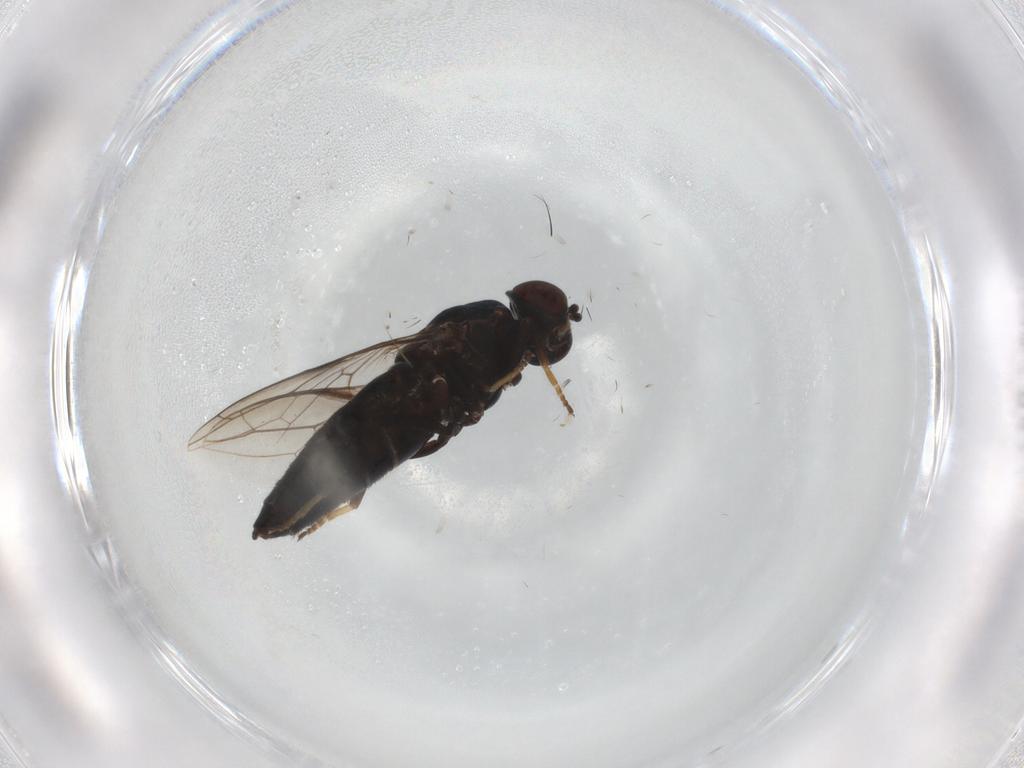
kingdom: Animalia
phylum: Arthropoda
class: Insecta
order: Diptera
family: Scenopinidae
